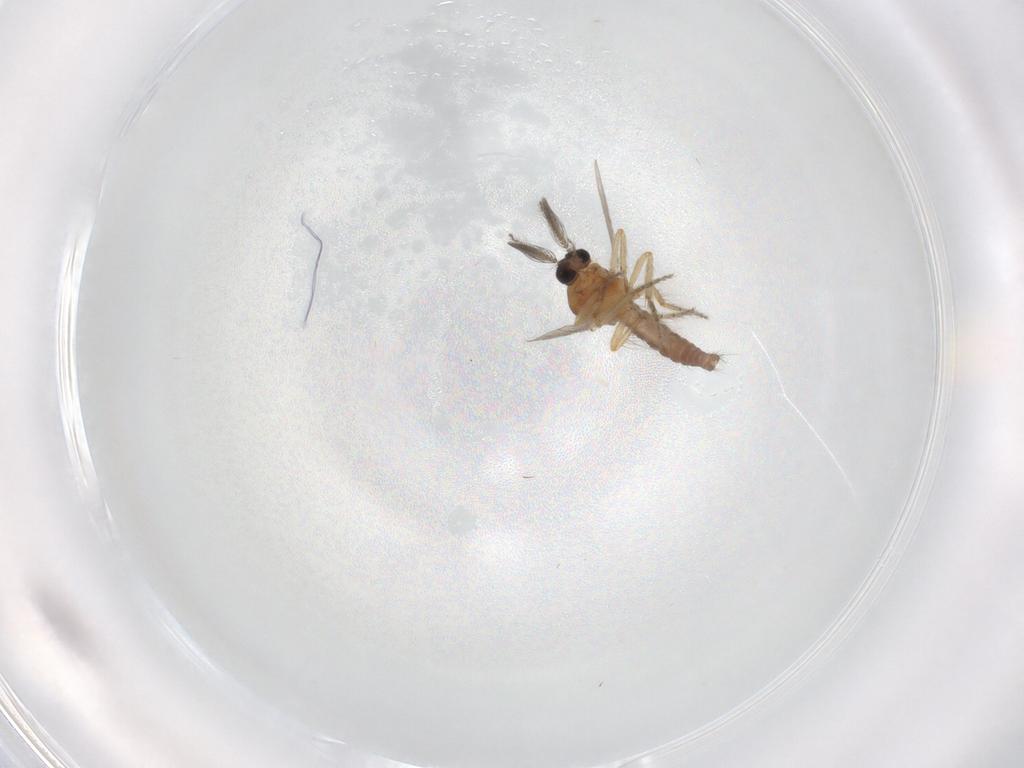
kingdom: Animalia
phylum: Arthropoda
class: Insecta
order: Diptera
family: Ceratopogonidae
